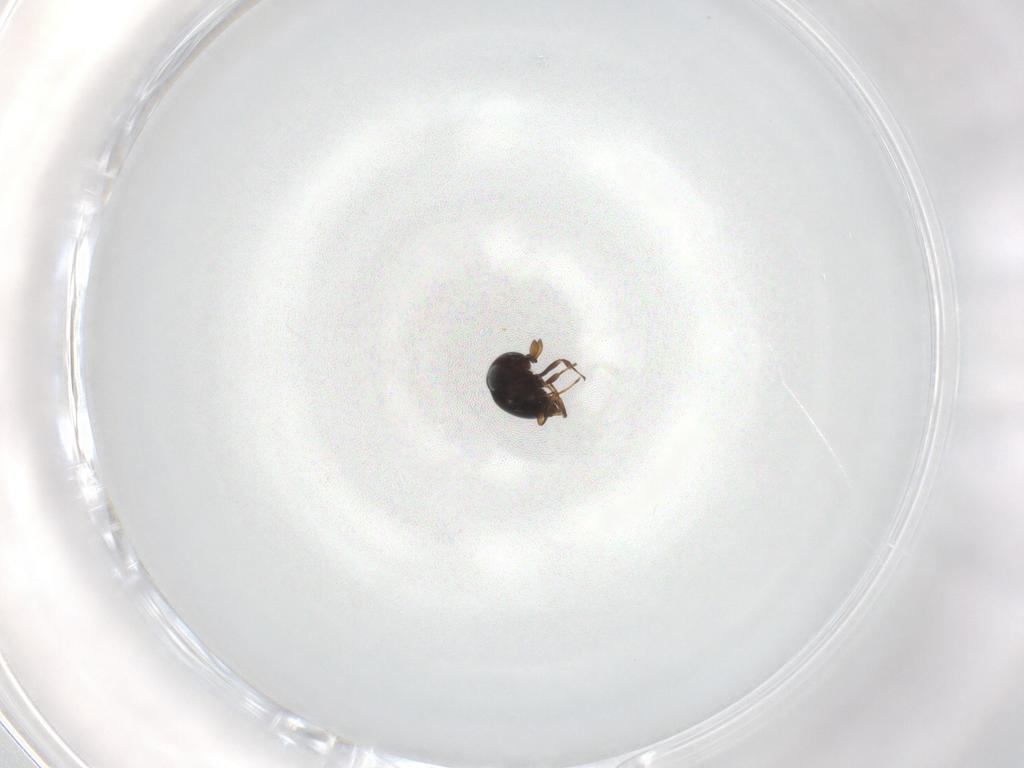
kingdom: Animalia
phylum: Arthropoda
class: Insecta
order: Hymenoptera
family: Scelionidae
